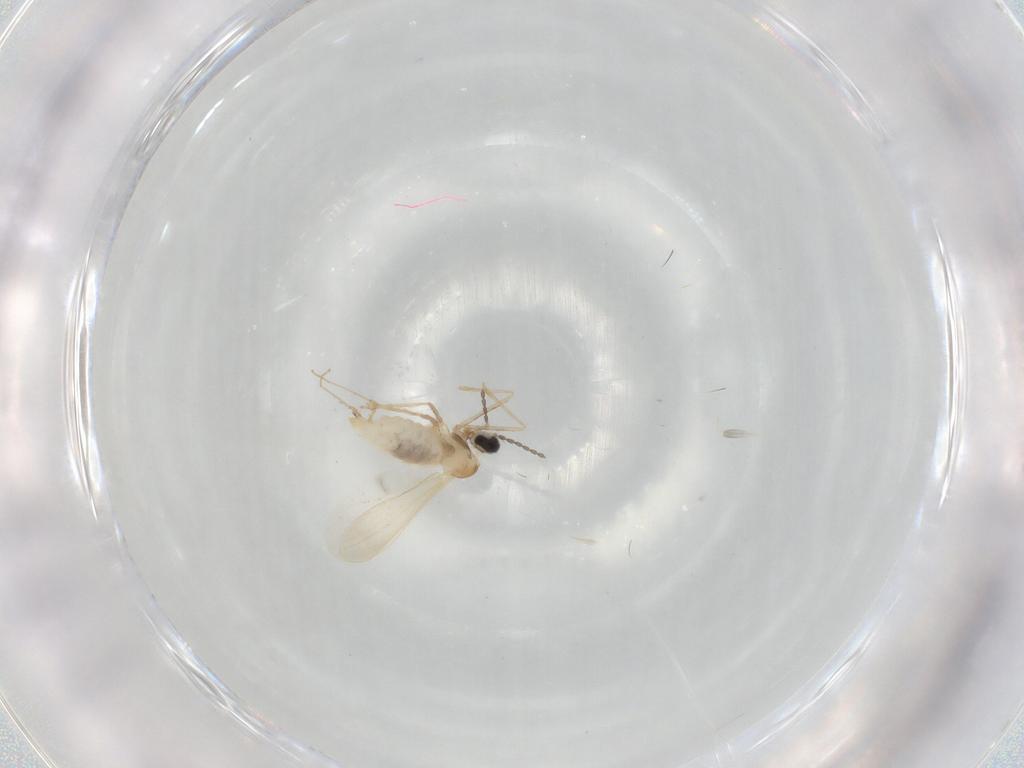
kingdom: Animalia
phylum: Arthropoda
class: Insecta
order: Diptera
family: Cecidomyiidae
